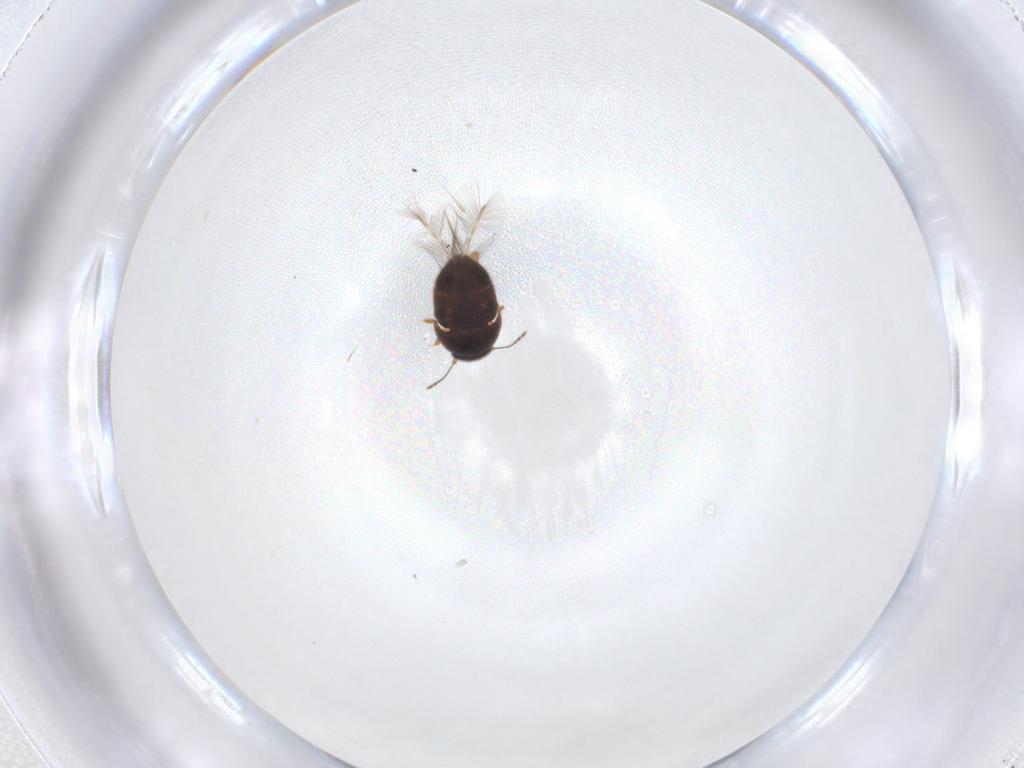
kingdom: Animalia
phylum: Arthropoda
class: Insecta
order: Coleoptera
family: Ptiliidae
